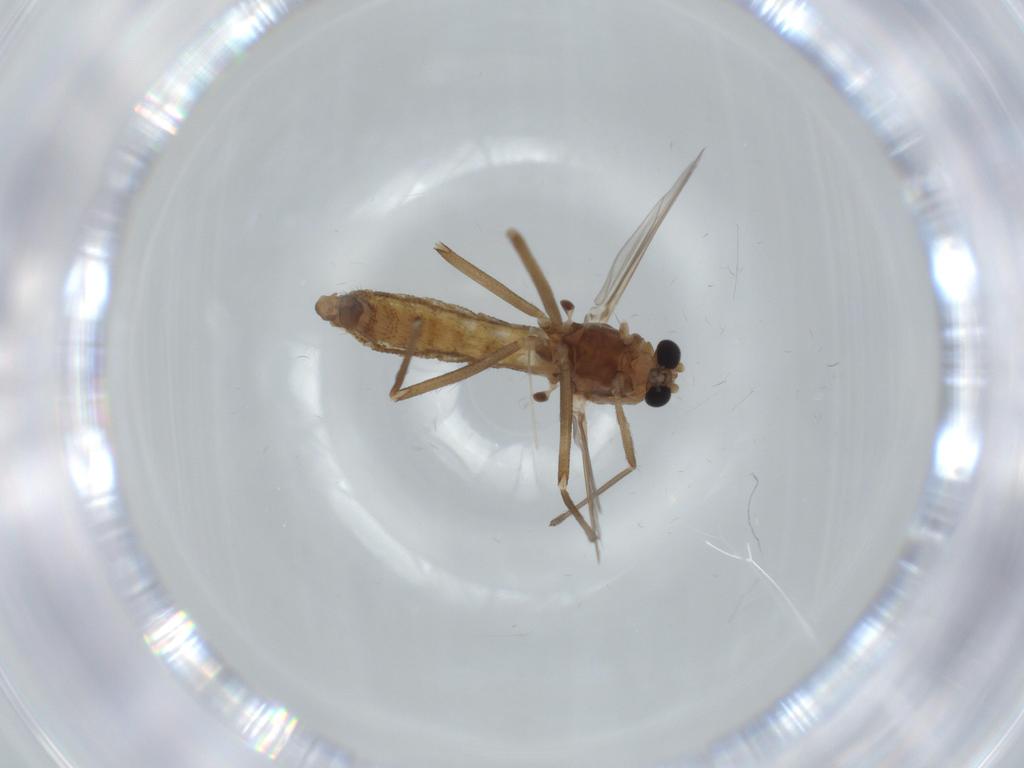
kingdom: Animalia
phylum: Arthropoda
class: Insecta
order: Diptera
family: Chironomidae
